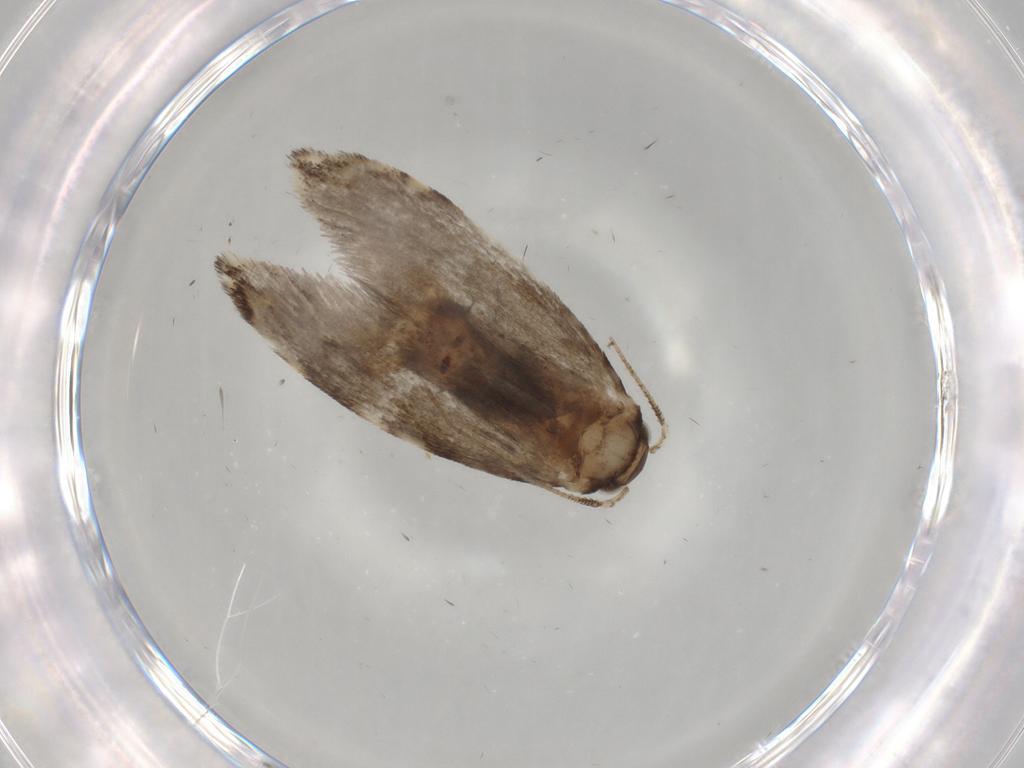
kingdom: Animalia
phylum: Arthropoda
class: Insecta
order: Lepidoptera
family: Tineidae
